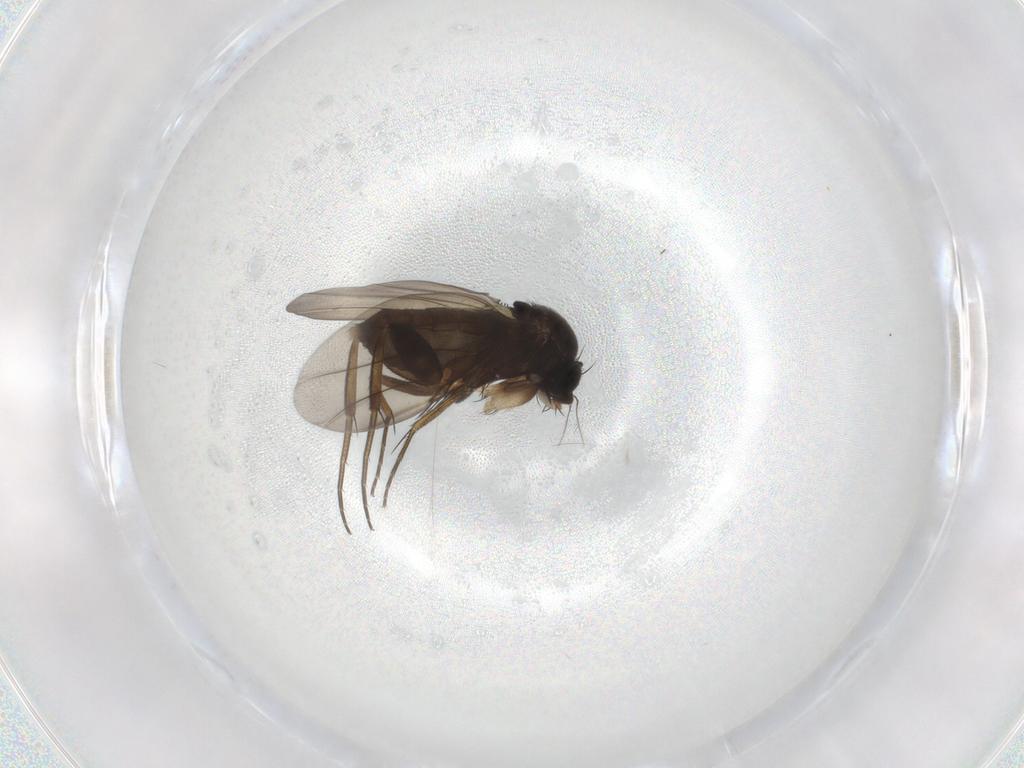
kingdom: Animalia
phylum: Arthropoda
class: Insecta
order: Diptera
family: Phoridae
